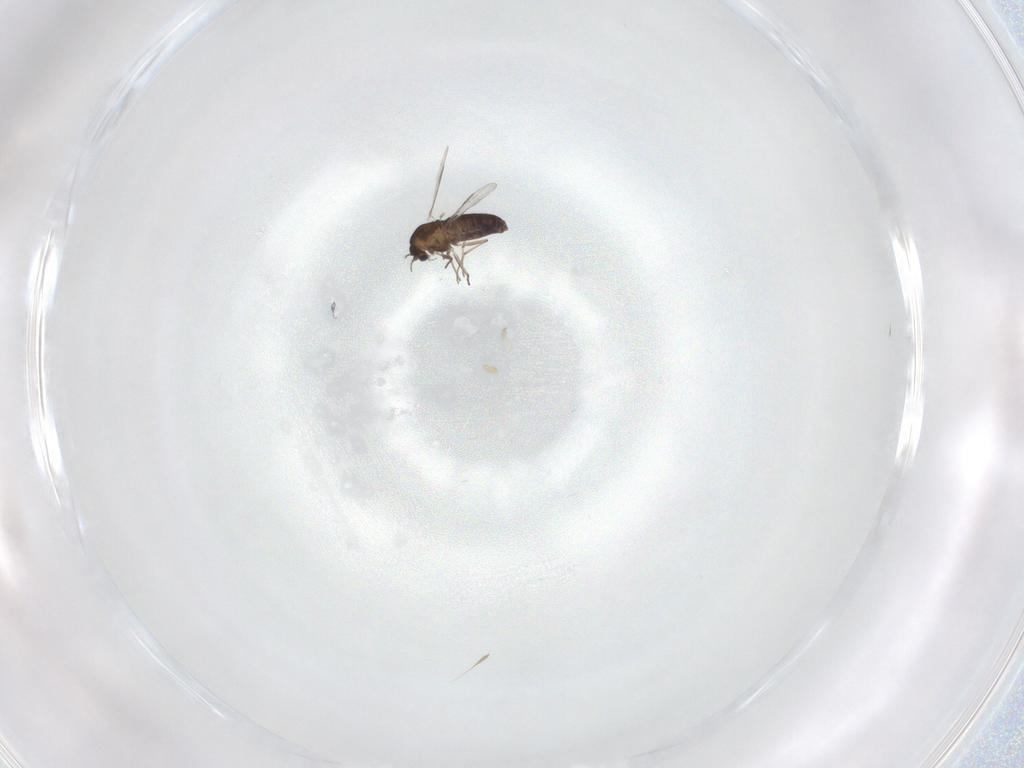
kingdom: Animalia
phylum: Arthropoda
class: Insecta
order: Diptera
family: Chironomidae
